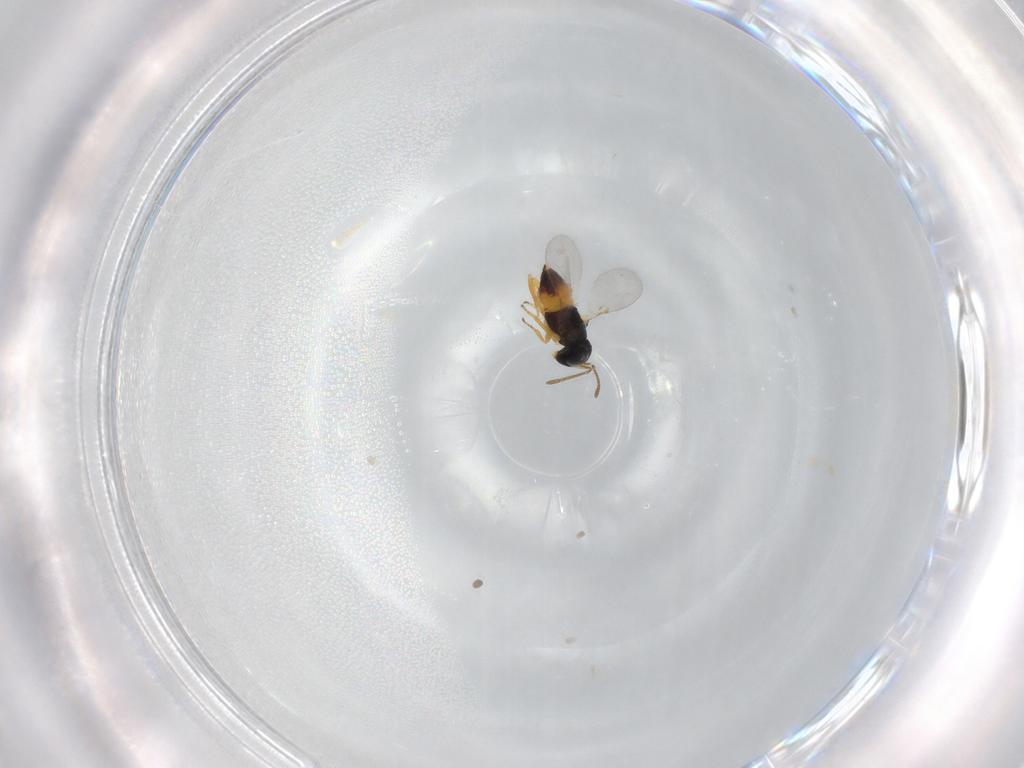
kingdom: Animalia
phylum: Arthropoda
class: Insecta
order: Hymenoptera
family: Encyrtidae
